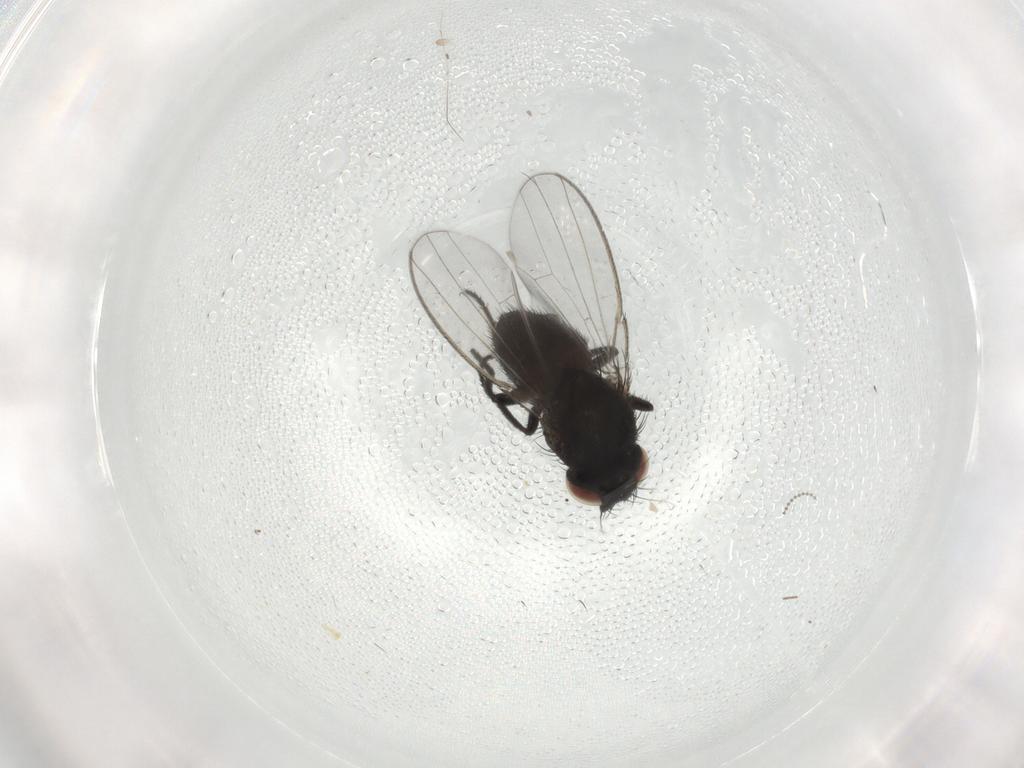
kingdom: Animalia
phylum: Arthropoda
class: Insecta
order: Diptera
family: Milichiidae
